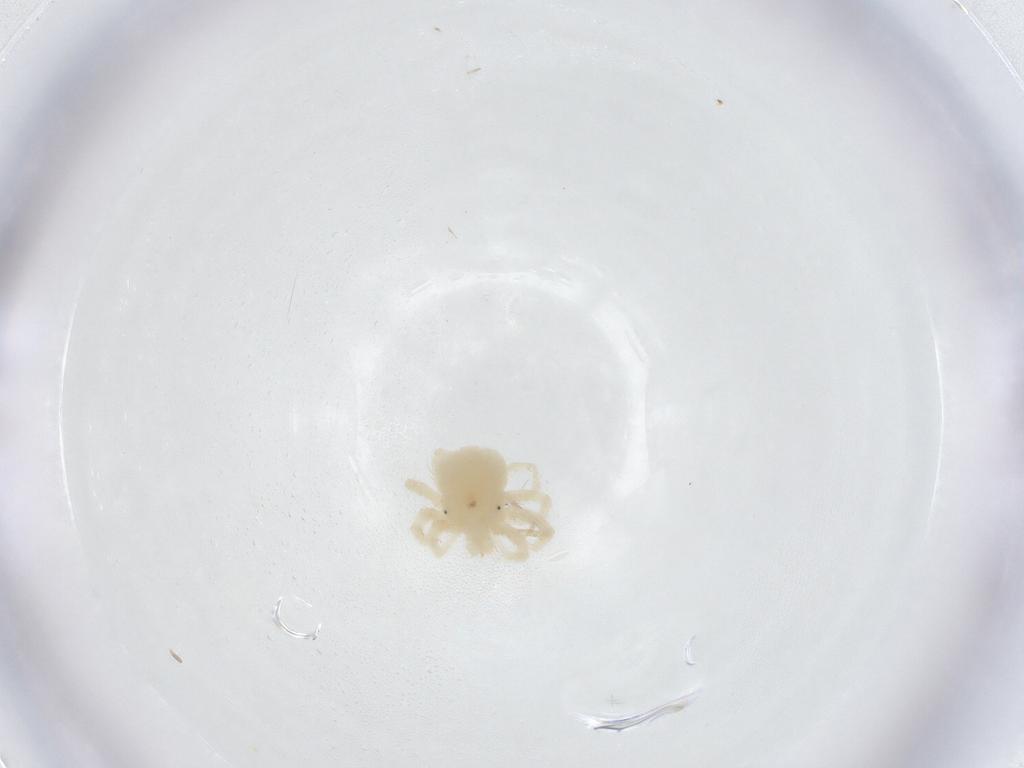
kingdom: Animalia
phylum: Arthropoda
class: Arachnida
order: Trombidiformes
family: Anystidae
